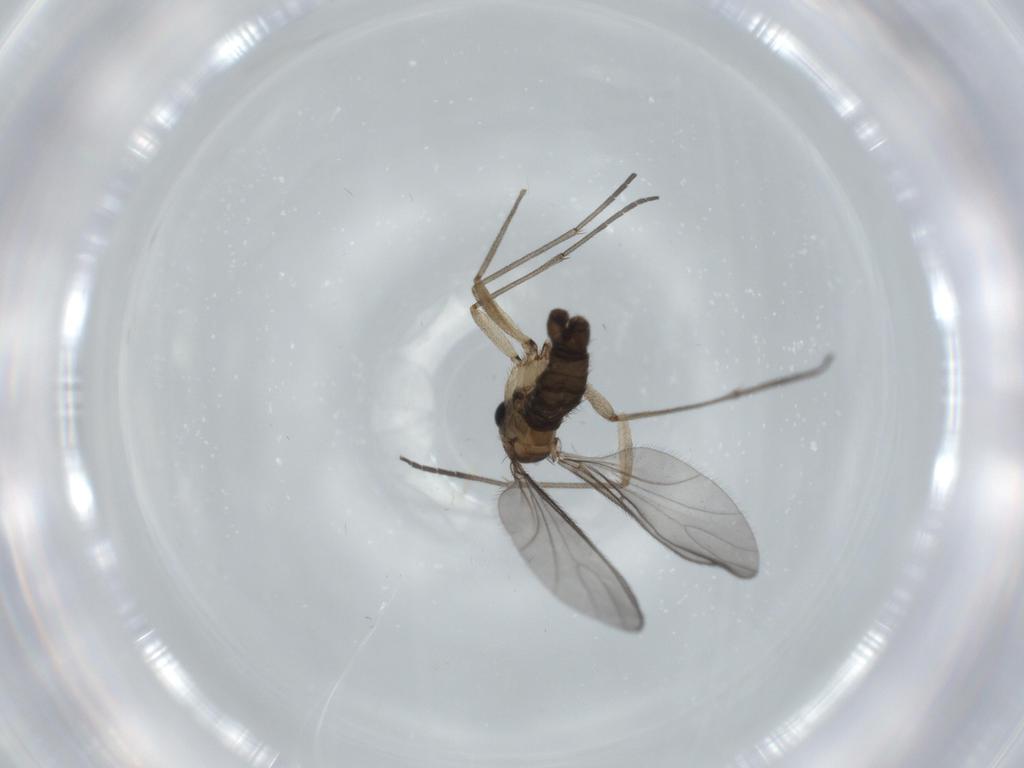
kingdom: Animalia
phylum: Arthropoda
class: Insecta
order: Diptera
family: Sciaridae
